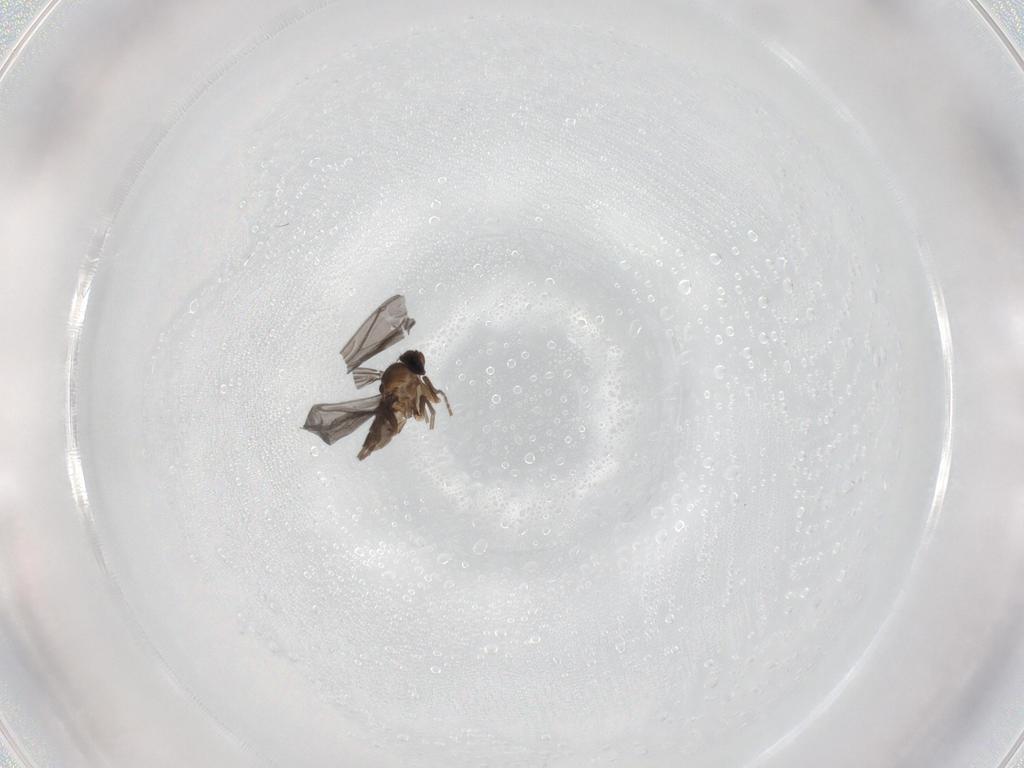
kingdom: Animalia
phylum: Arthropoda
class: Insecta
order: Diptera
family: Phoridae
